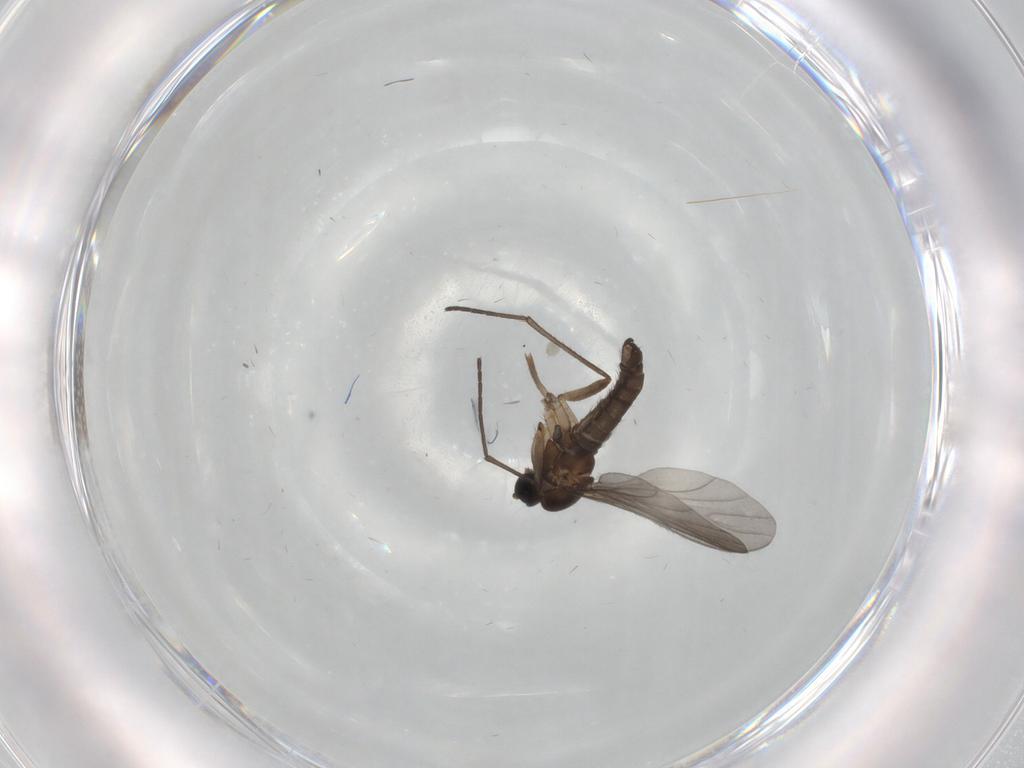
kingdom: Animalia
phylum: Arthropoda
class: Insecta
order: Diptera
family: Sciaridae
